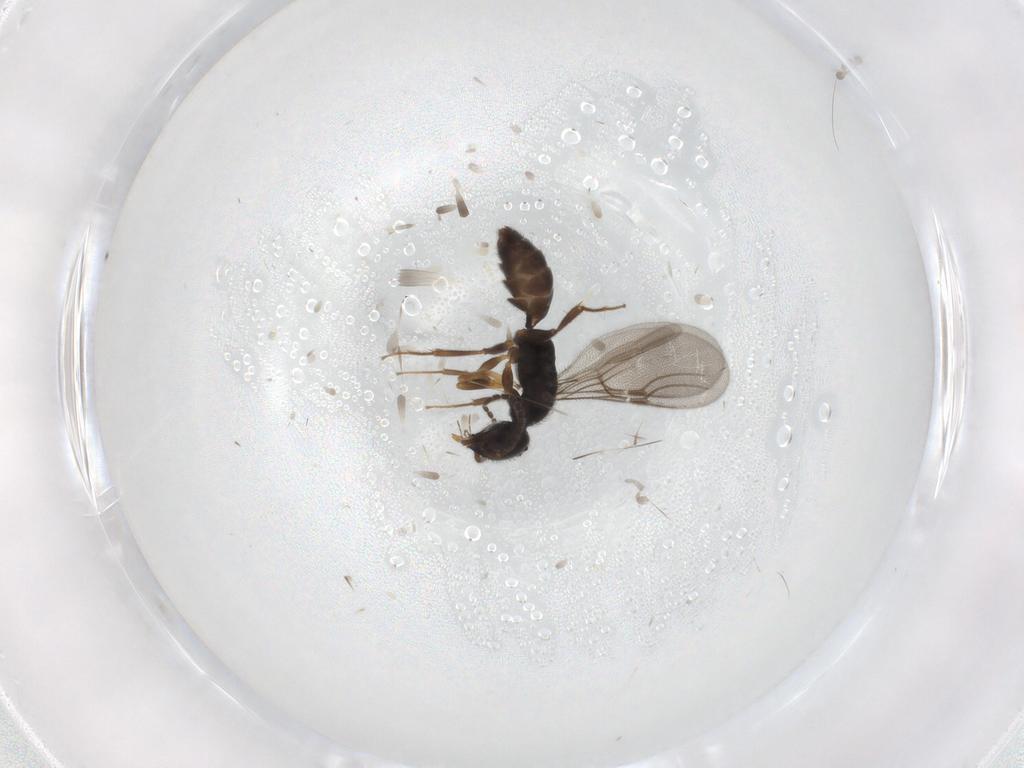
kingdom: Animalia
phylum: Arthropoda
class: Insecta
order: Hymenoptera
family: Bethylidae
